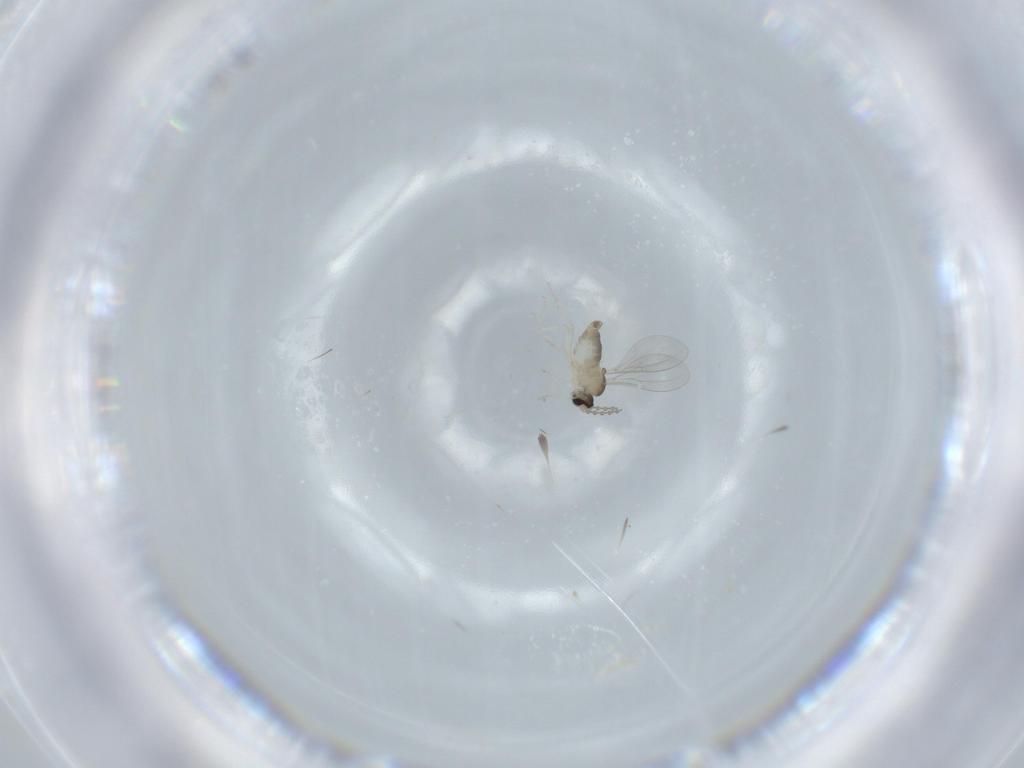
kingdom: Animalia
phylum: Arthropoda
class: Insecta
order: Diptera
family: Cecidomyiidae
